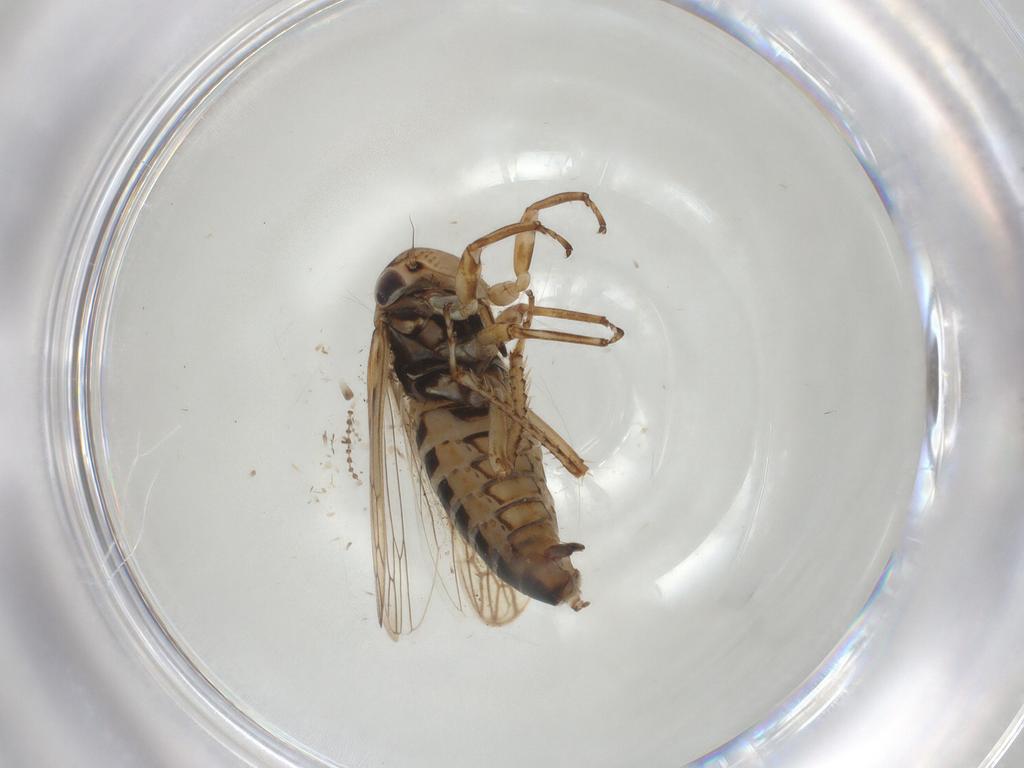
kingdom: Animalia
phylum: Arthropoda
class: Insecta
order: Hemiptera
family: Cicadellidae
